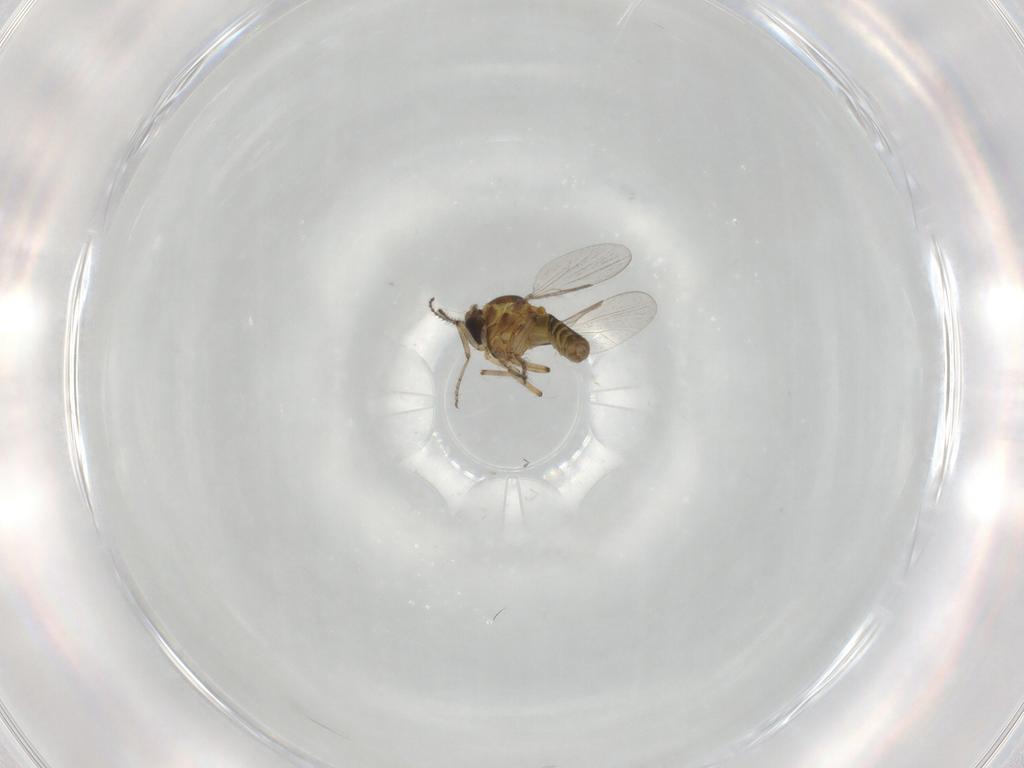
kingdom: Animalia
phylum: Arthropoda
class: Insecta
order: Diptera
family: Ceratopogonidae
